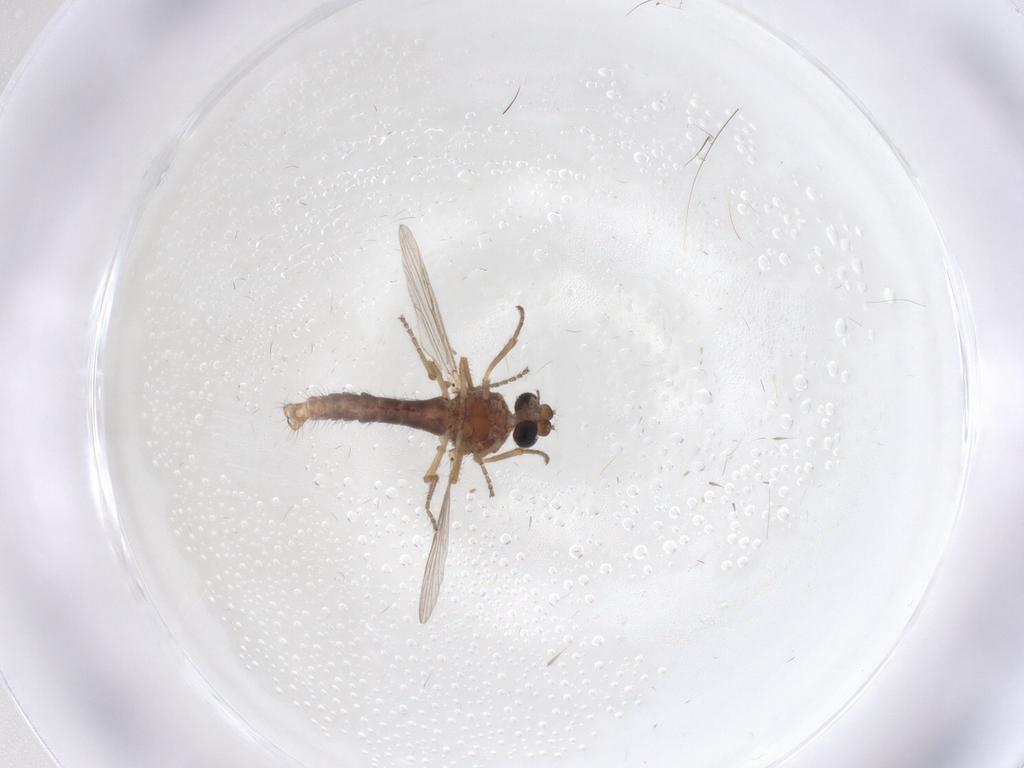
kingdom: Animalia
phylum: Arthropoda
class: Insecta
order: Diptera
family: Ceratopogonidae
